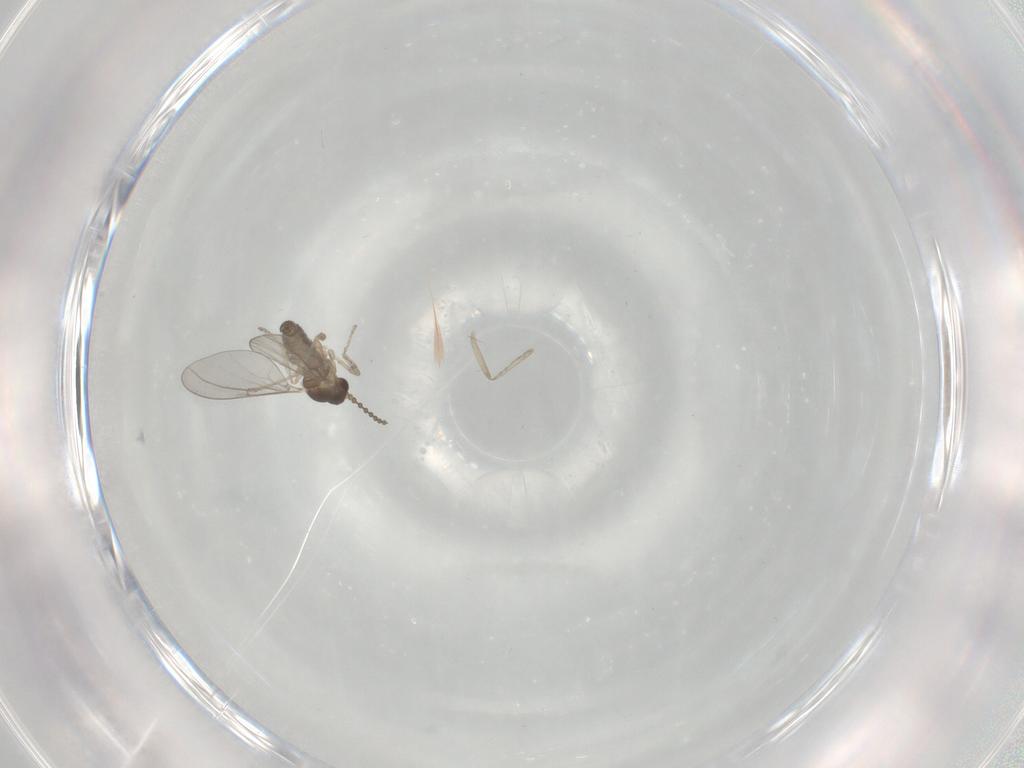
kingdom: Animalia
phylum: Arthropoda
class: Insecta
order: Diptera
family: Cecidomyiidae
